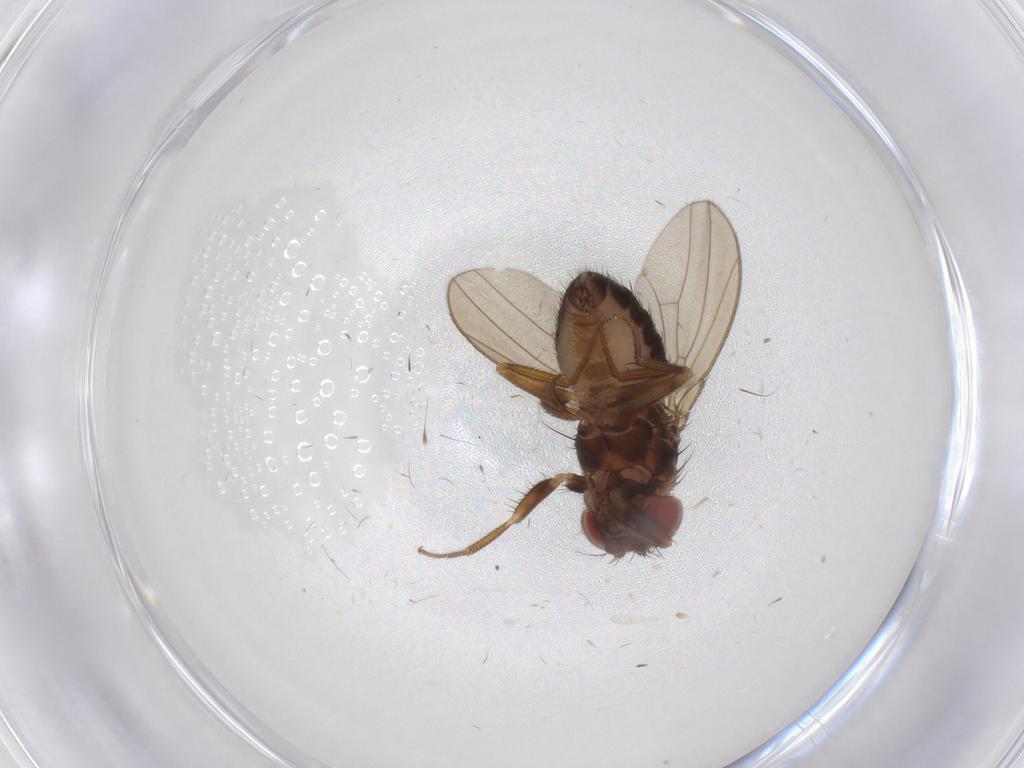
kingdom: Animalia
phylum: Arthropoda
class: Insecta
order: Diptera
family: Drosophilidae
